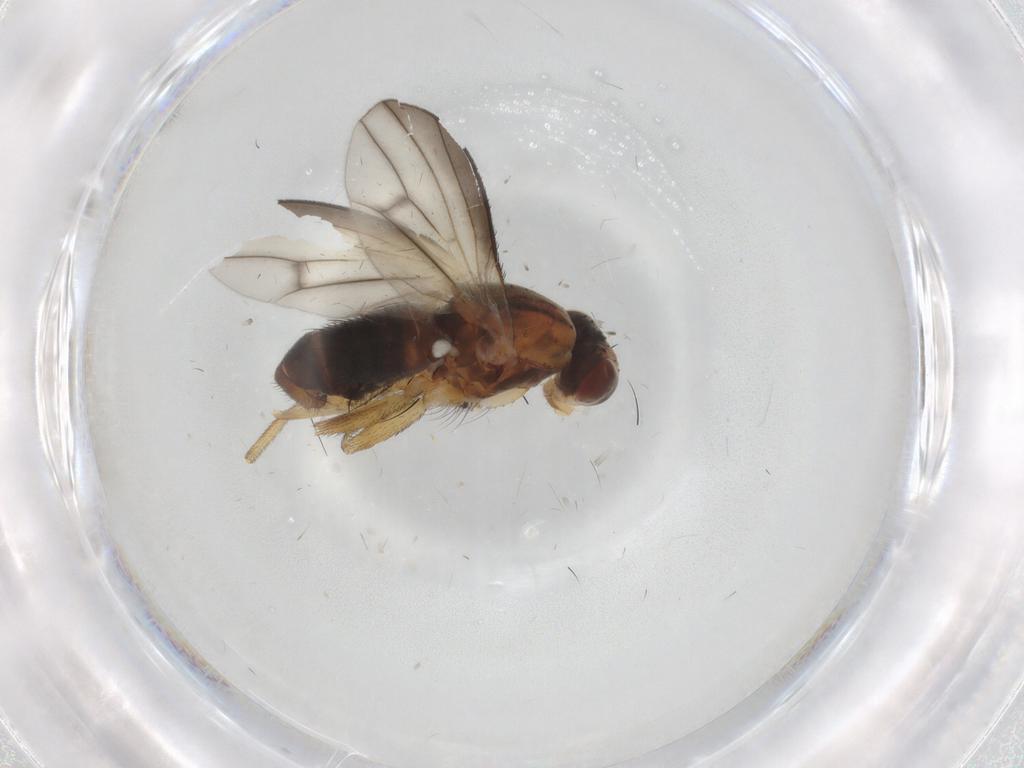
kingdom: Animalia
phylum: Arthropoda
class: Insecta
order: Diptera
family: Heleomyzidae
